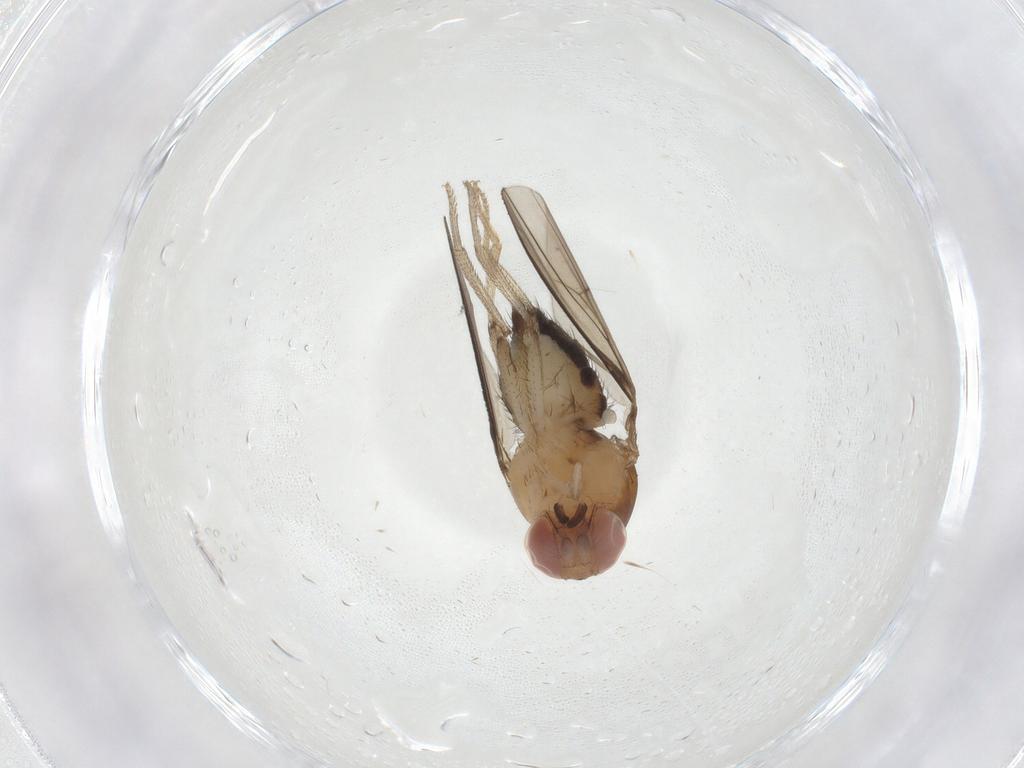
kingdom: Animalia
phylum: Arthropoda
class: Insecta
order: Diptera
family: Drosophilidae
